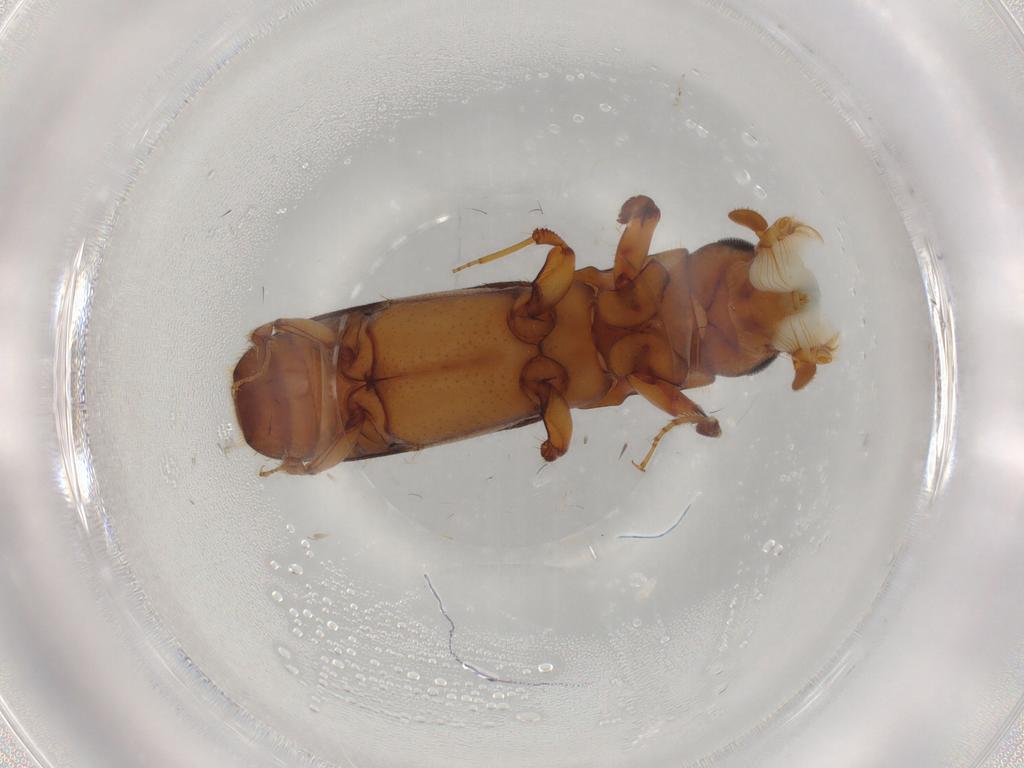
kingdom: Animalia
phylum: Arthropoda
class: Insecta
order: Coleoptera
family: Curculionidae
